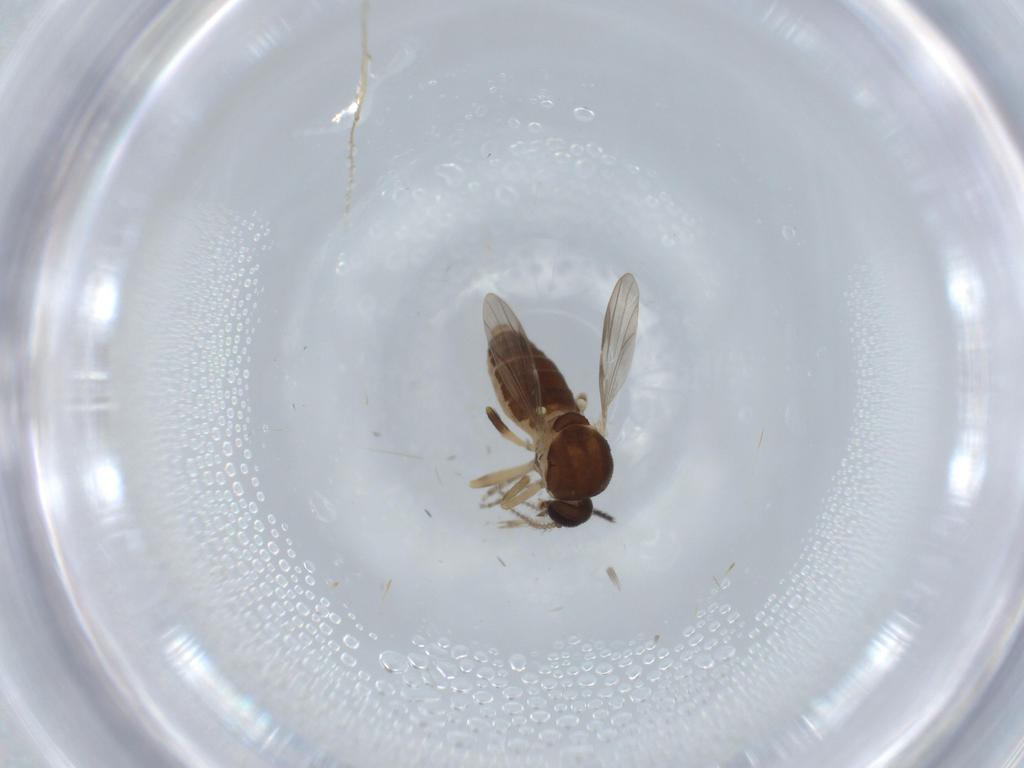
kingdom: Animalia
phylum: Arthropoda
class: Insecta
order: Diptera
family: Ceratopogonidae
